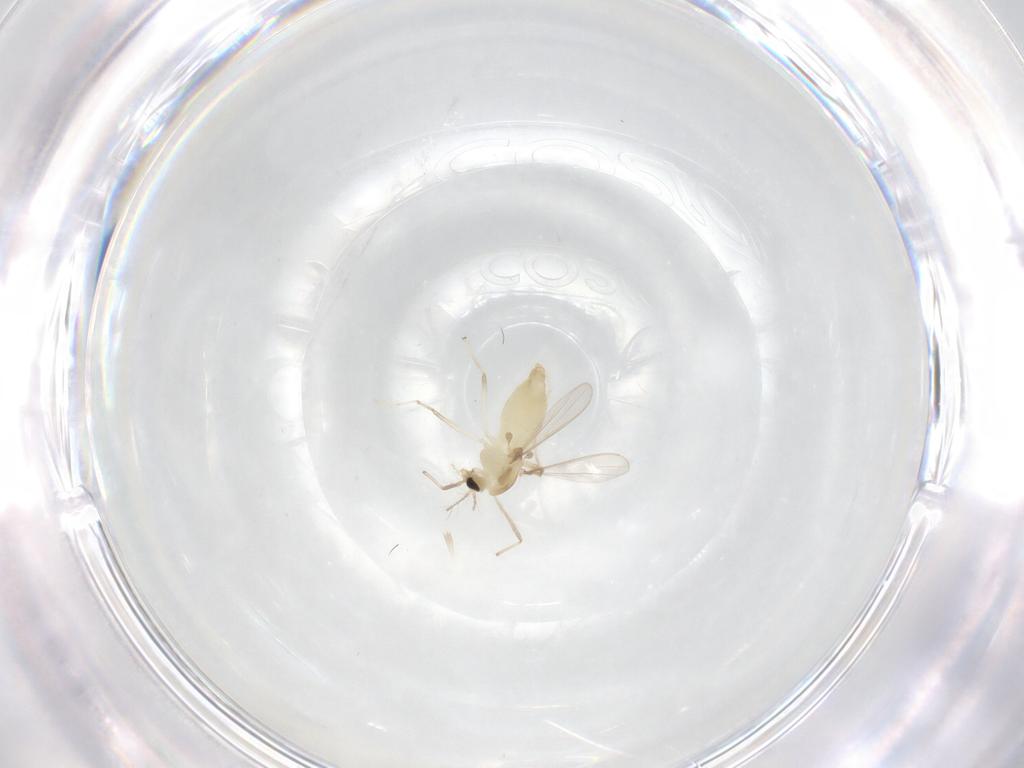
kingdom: Animalia
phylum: Arthropoda
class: Insecta
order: Diptera
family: Chironomidae
